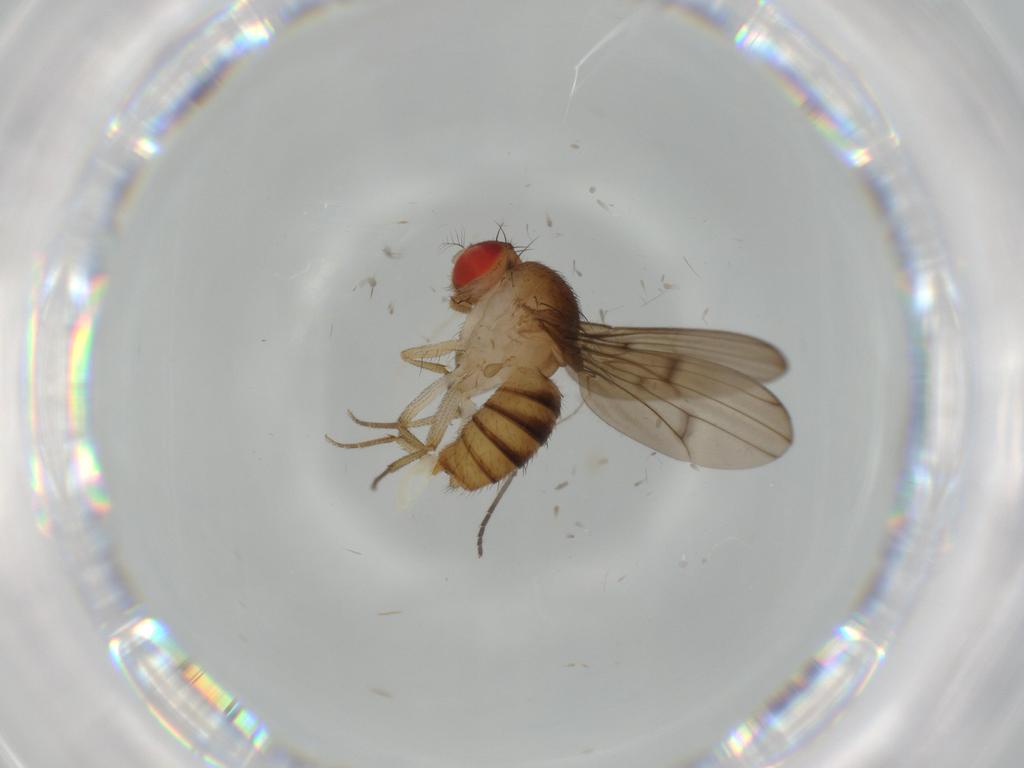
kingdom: Animalia
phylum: Arthropoda
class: Insecta
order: Diptera
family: Drosophilidae
